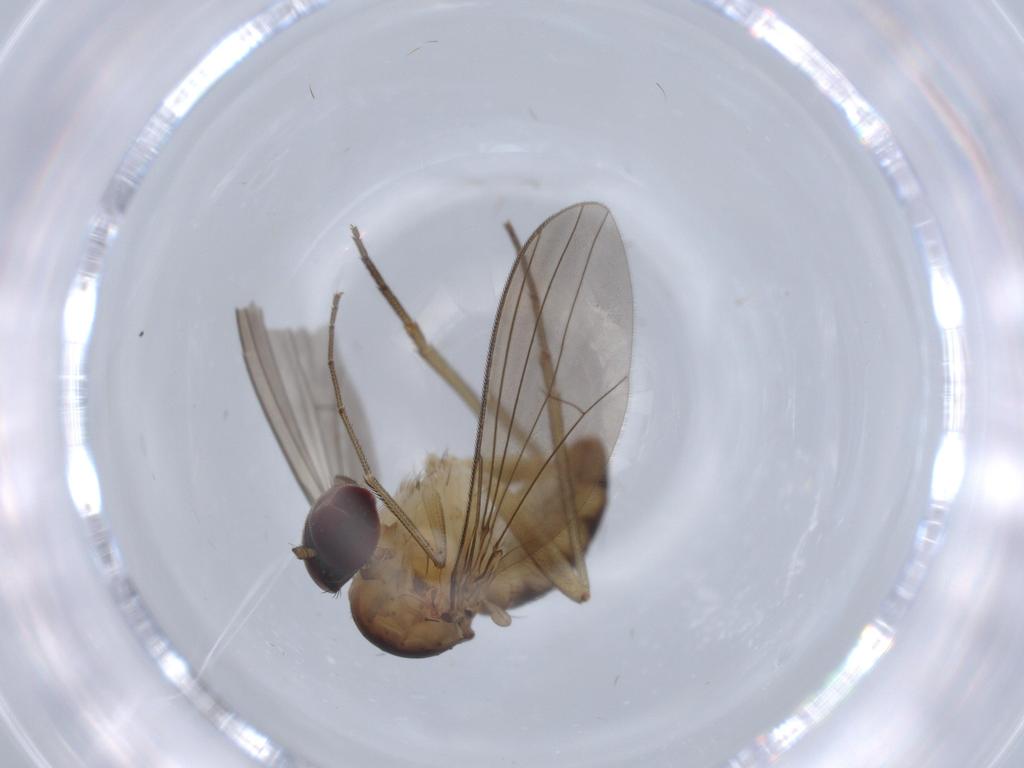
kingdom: Animalia
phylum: Arthropoda
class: Insecta
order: Diptera
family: Dolichopodidae
